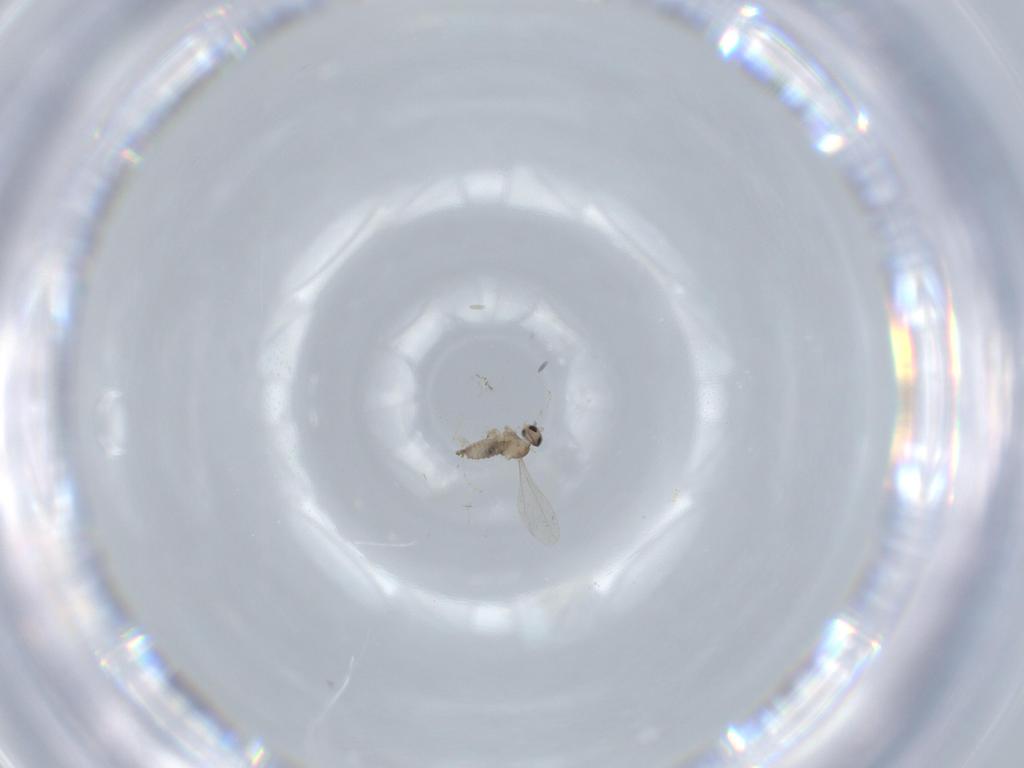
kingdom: Animalia
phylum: Arthropoda
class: Insecta
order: Diptera
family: Cecidomyiidae
